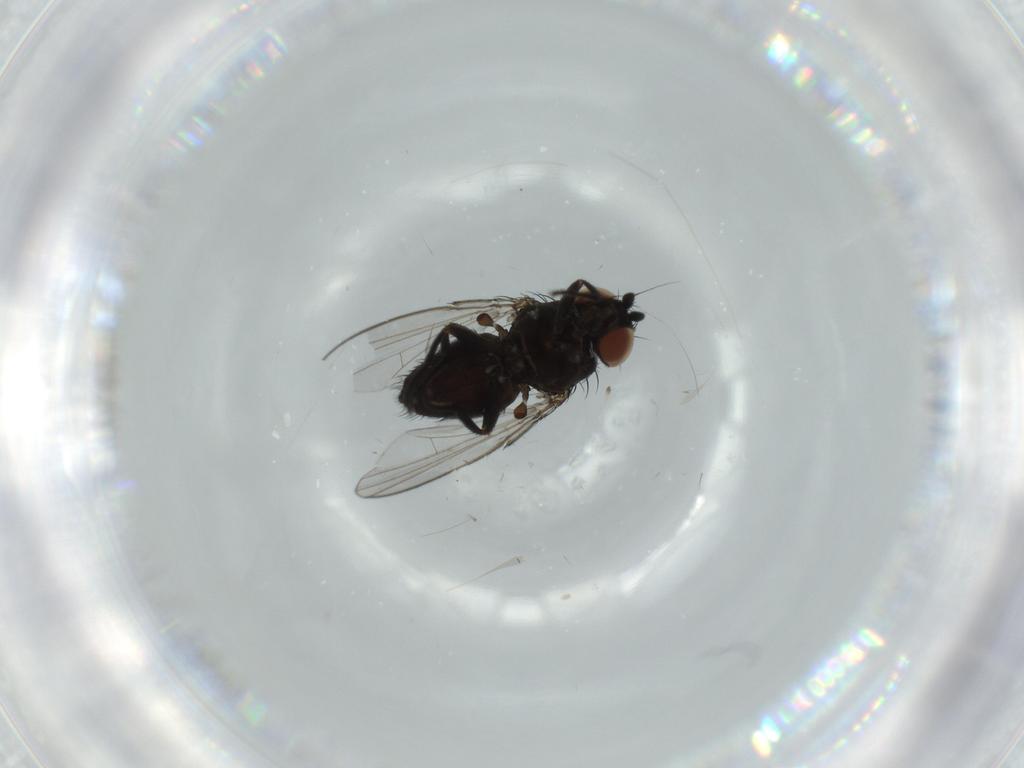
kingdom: Animalia
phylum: Arthropoda
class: Insecta
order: Diptera
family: Milichiidae
